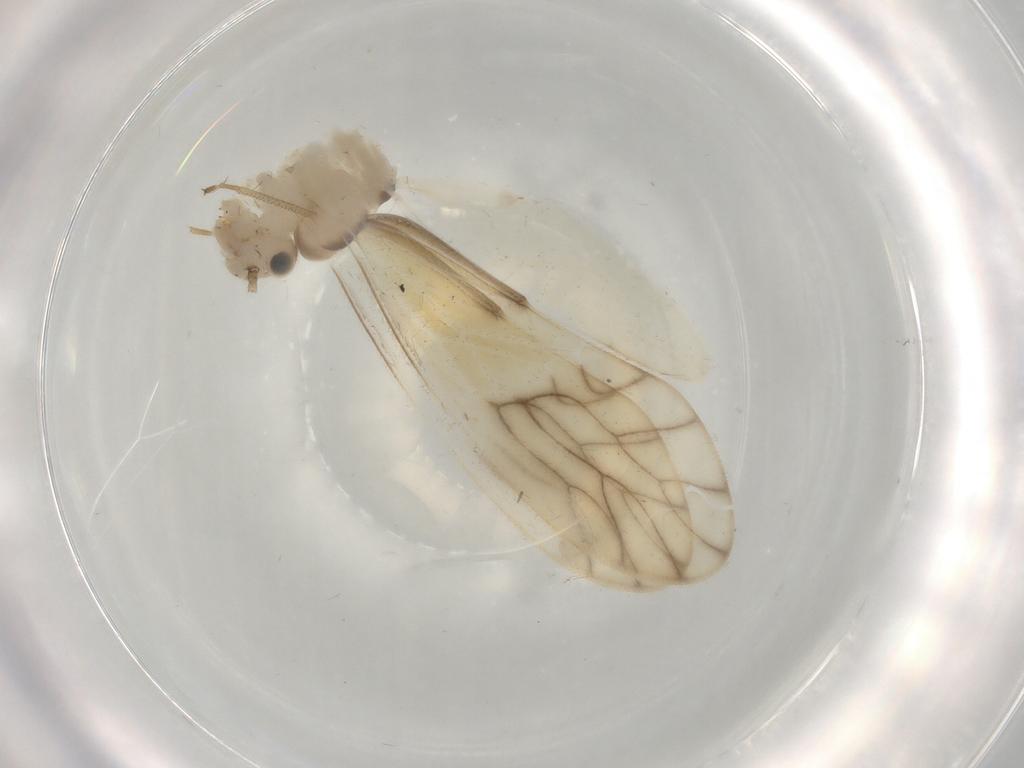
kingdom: Animalia
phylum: Arthropoda
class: Insecta
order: Psocodea
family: Caeciliusidae
